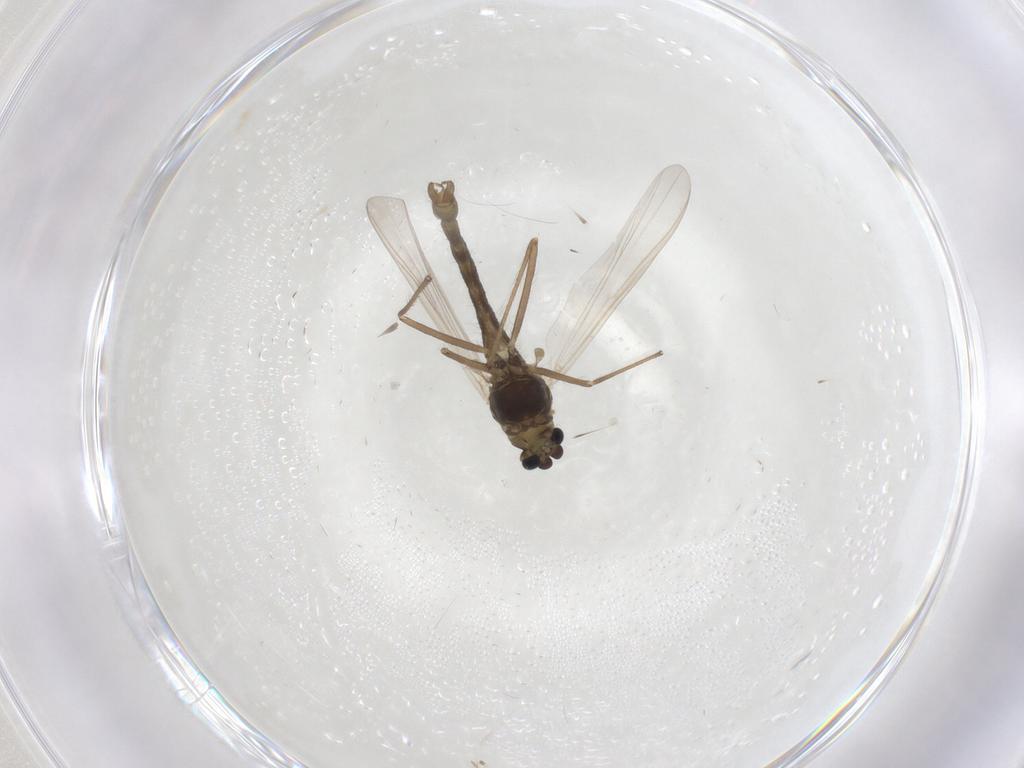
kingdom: Animalia
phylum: Arthropoda
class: Insecta
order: Diptera
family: Chironomidae
